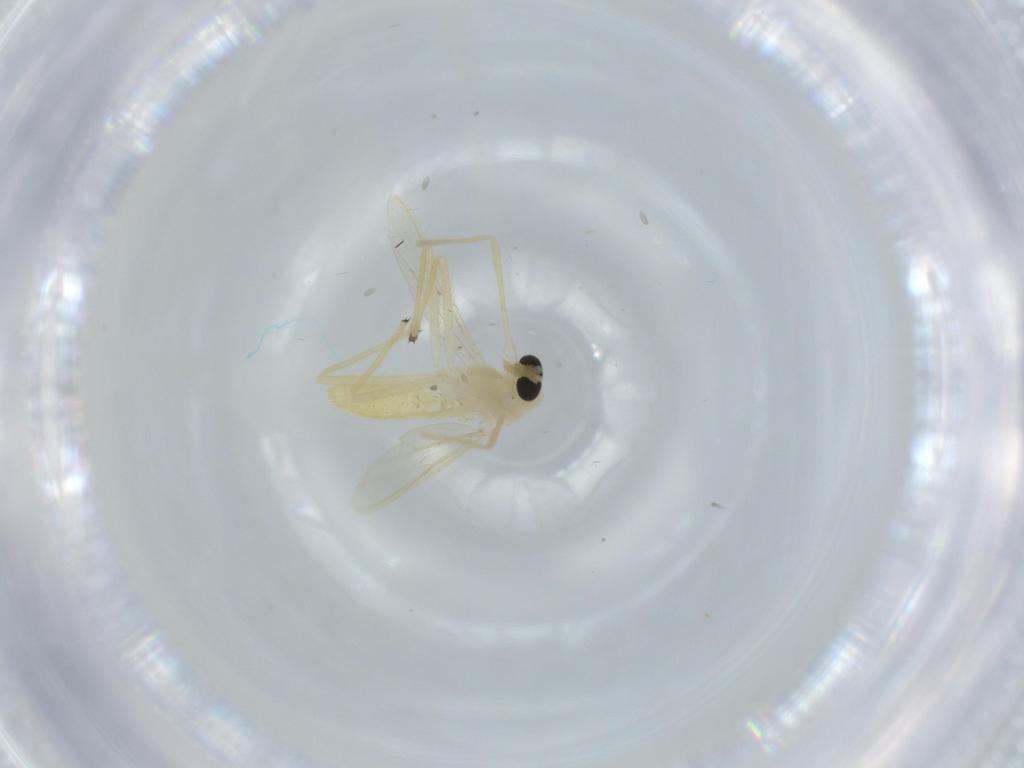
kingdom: Animalia
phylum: Arthropoda
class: Insecta
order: Diptera
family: Chironomidae
